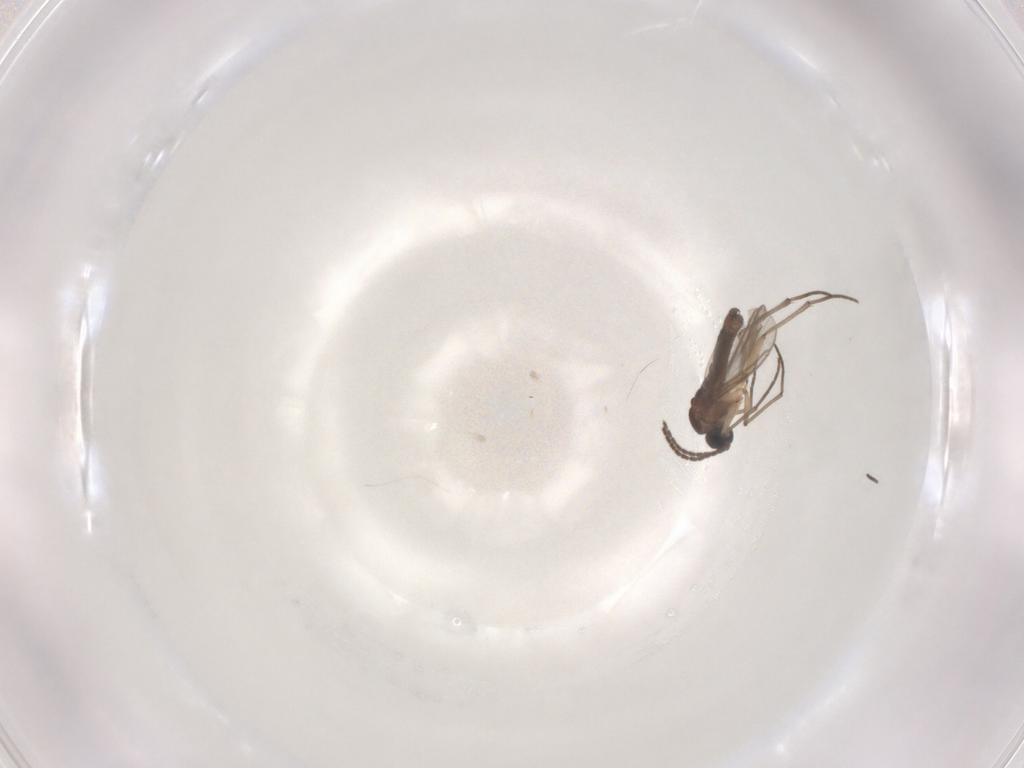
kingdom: Animalia
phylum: Arthropoda
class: Insecta
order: Diptera
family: Sciaridae
